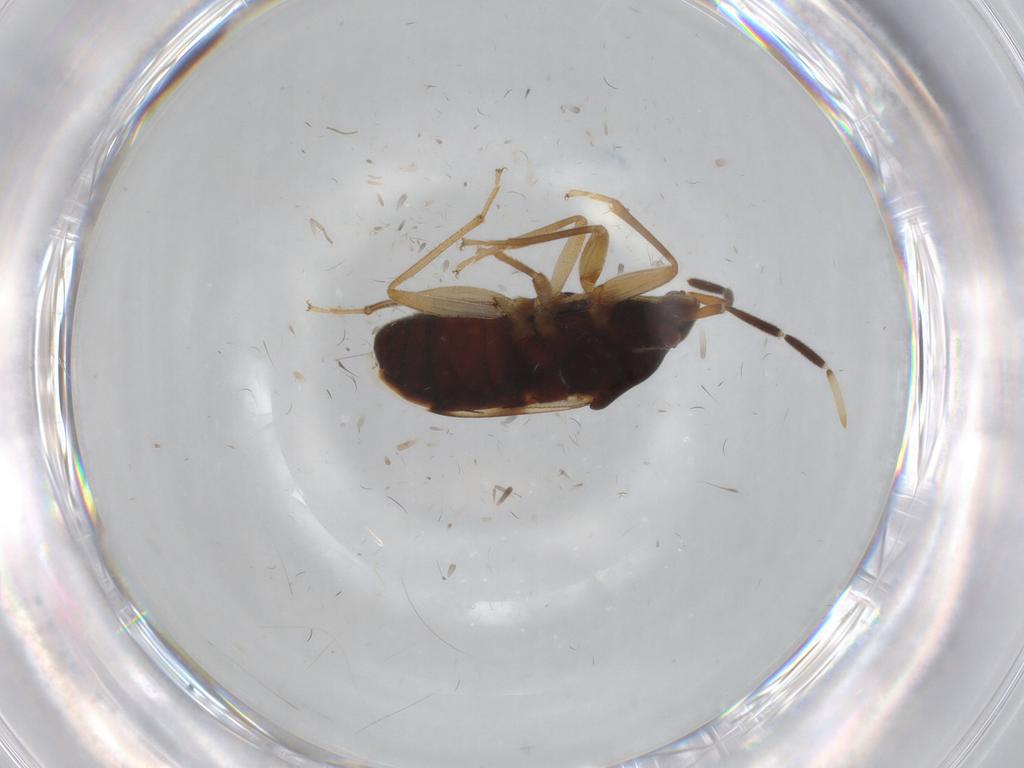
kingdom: Animalia
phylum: Arthropoda
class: Insecta
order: Hemiptera
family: Rhyparochromidae
